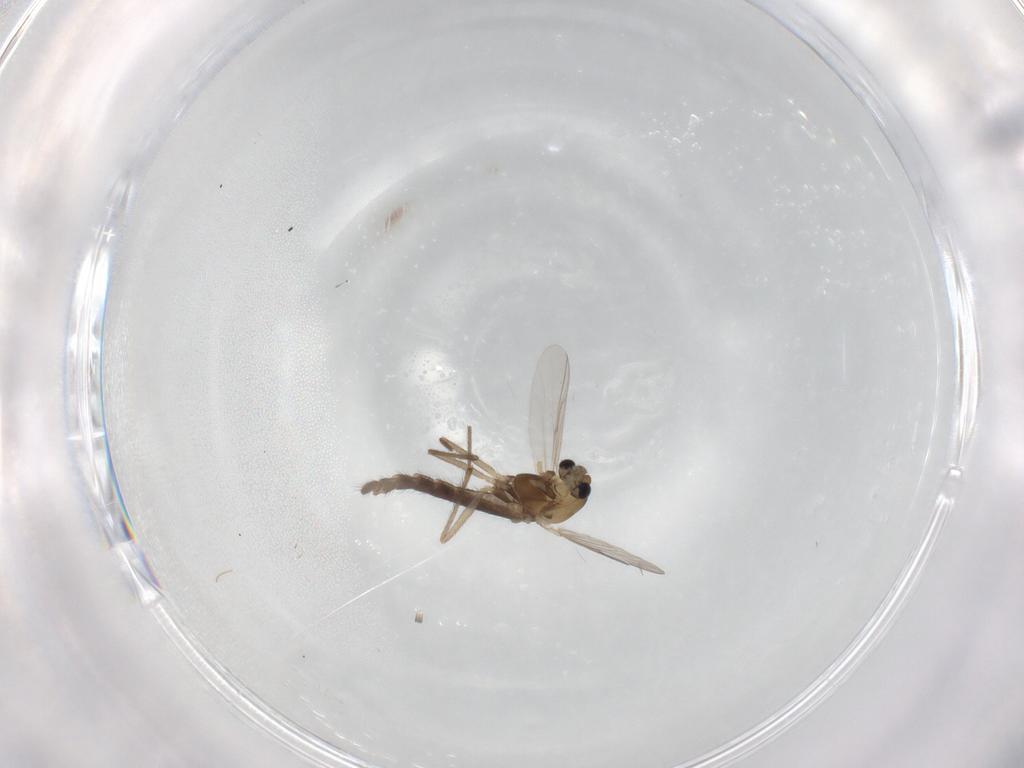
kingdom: Animalia
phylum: Arthropoda
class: Insecta
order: Diptera
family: Chironomidae
